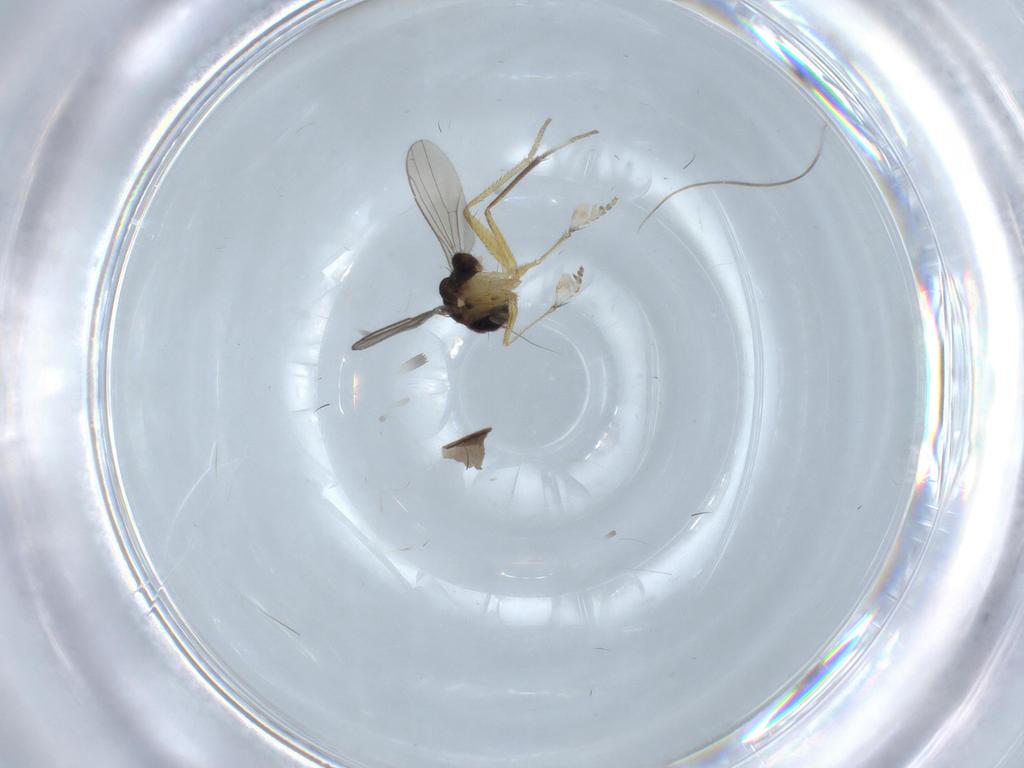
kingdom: Animalia
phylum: Arthropoda
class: Insecta
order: Diptera
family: Dolichopodidae
